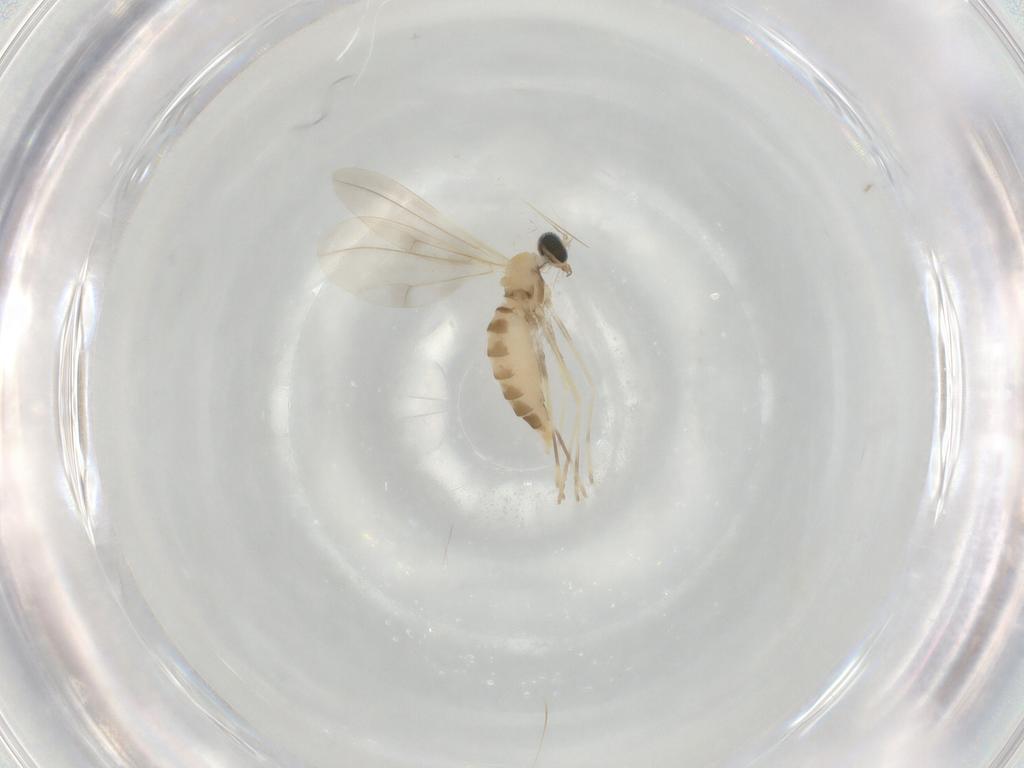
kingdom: Animalia
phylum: Arthropoda
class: Insecta
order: Diptera
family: Cecidomyiidae
